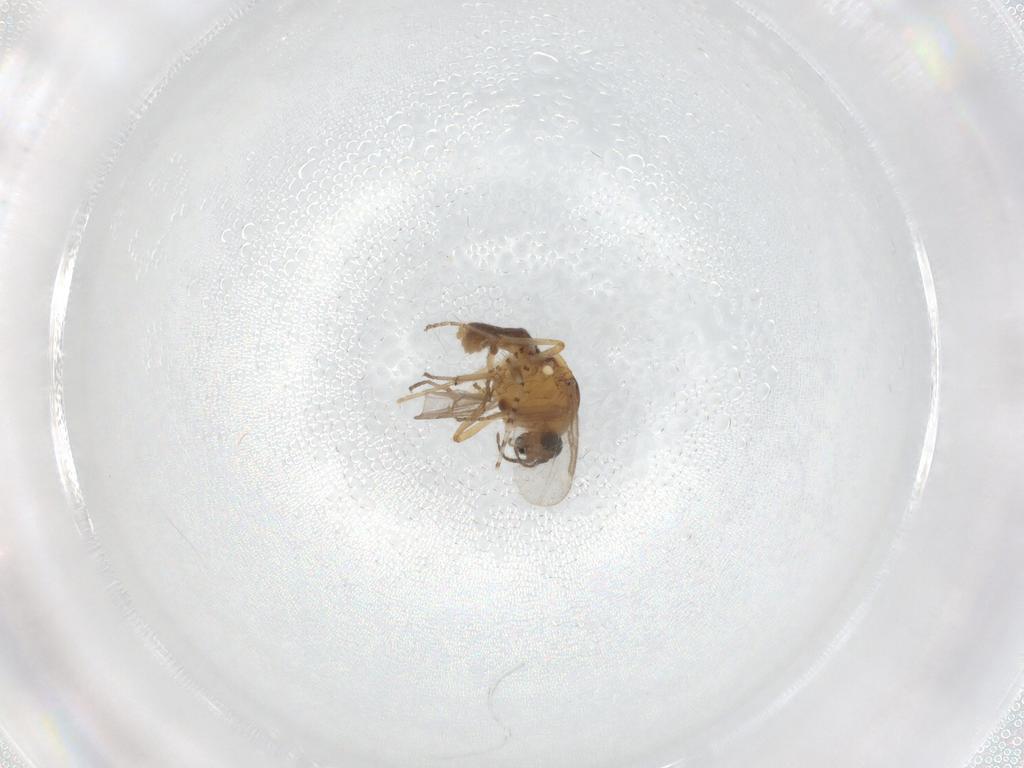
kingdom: Animalia
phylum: Arthropoda
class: Insecta
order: Diptera
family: Ceratopogonidae
